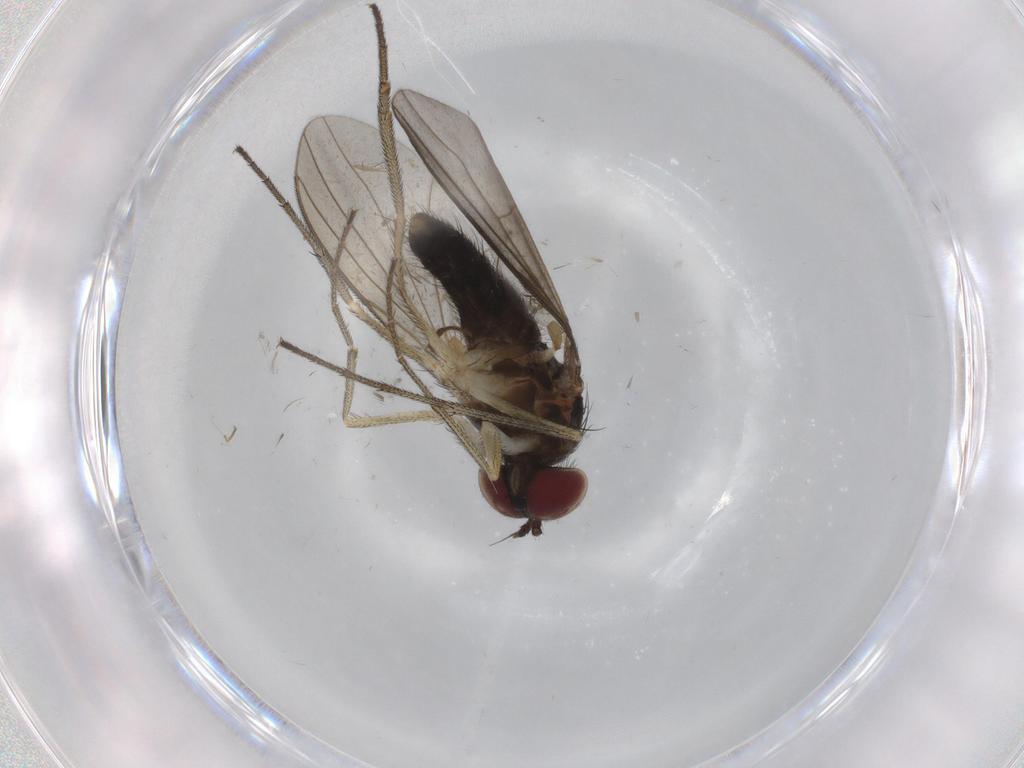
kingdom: Animalia
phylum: Arthropoda
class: Insecta
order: Diptera
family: Sphaeroceridae
